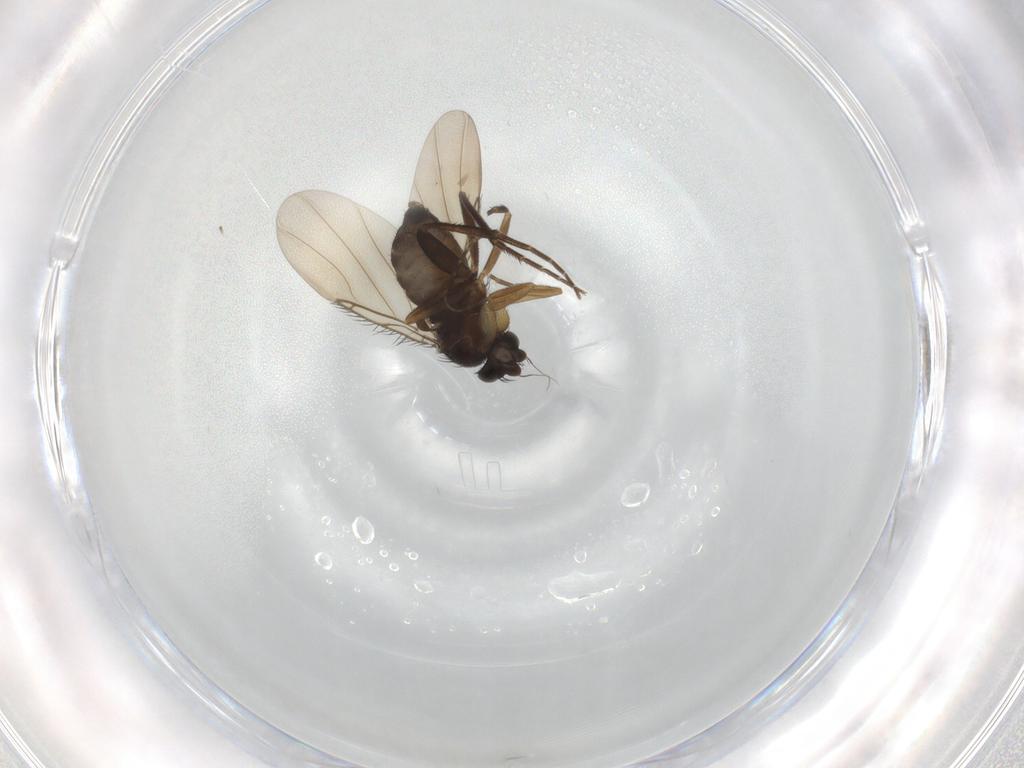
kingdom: Animalia
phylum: Arthropoda
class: Insecta
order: Diptera
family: Phoridae
